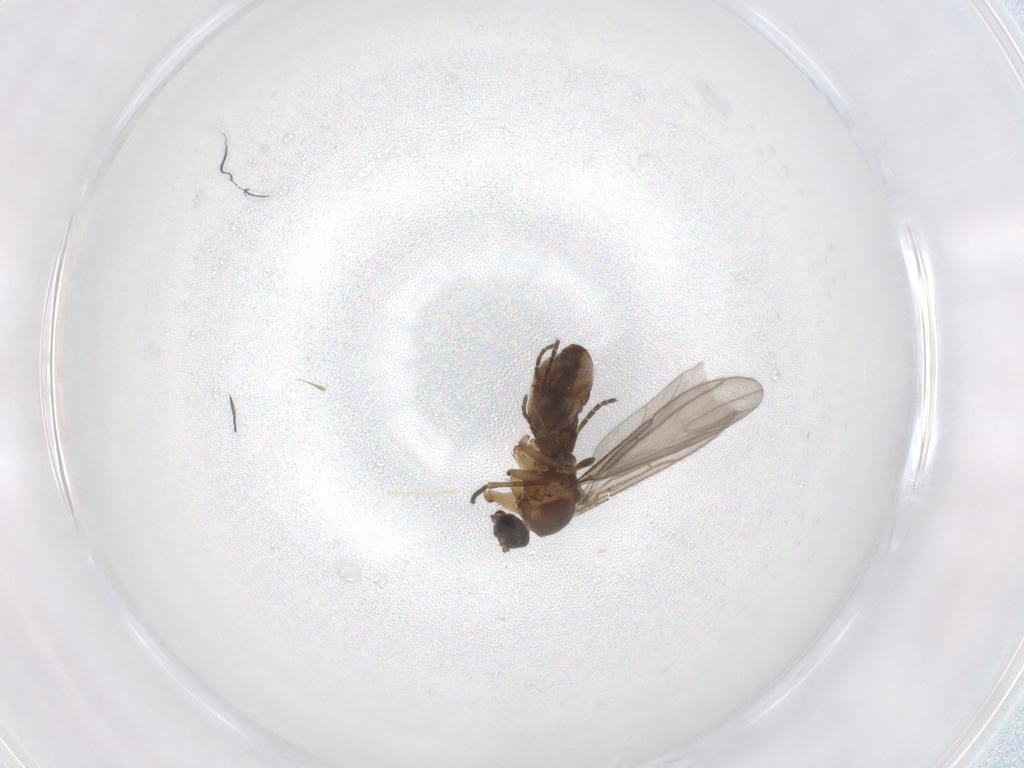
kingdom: Animalia
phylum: Arthropoda
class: Insecta
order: Diptera
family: Sciaridae
